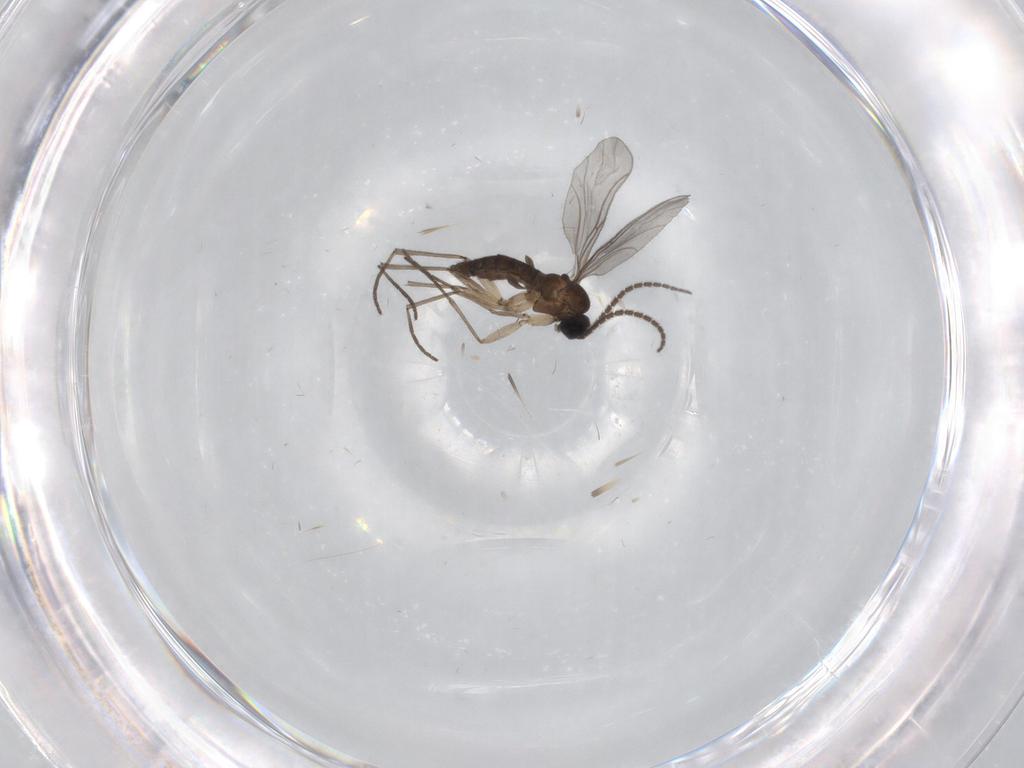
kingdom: Animalia
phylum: Arthropoda
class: Insecta
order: Diptera
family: Sciaridae
